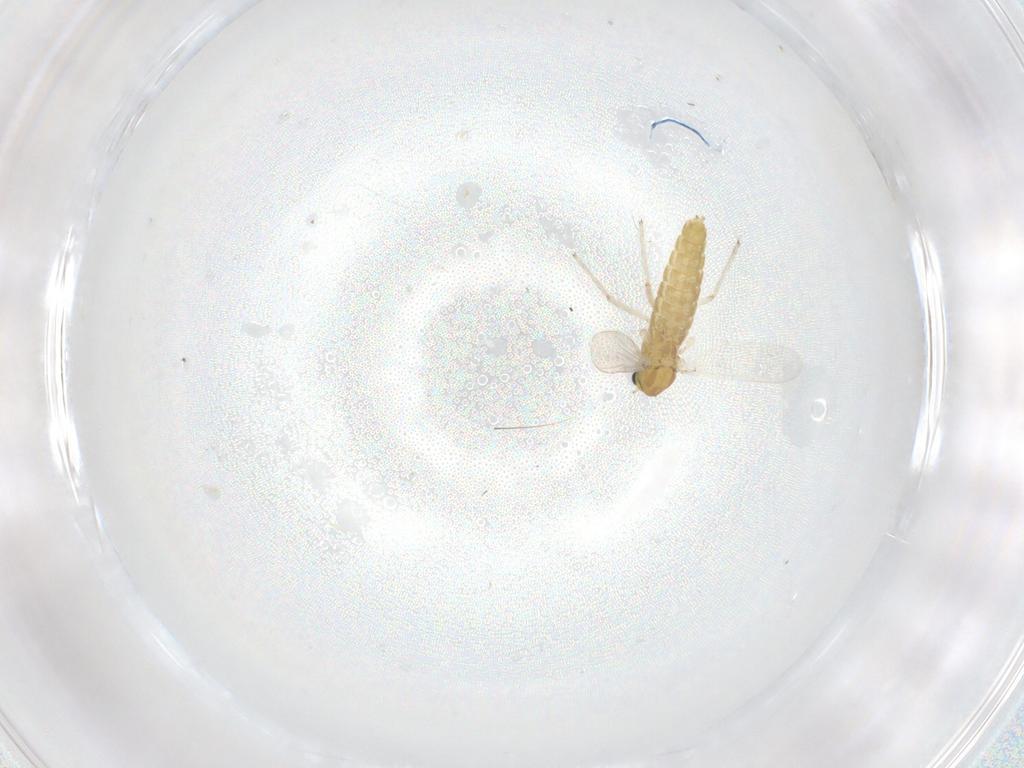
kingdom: Animalia
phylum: Arthropoda
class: Insecta
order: Diptera
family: Chironomidae
